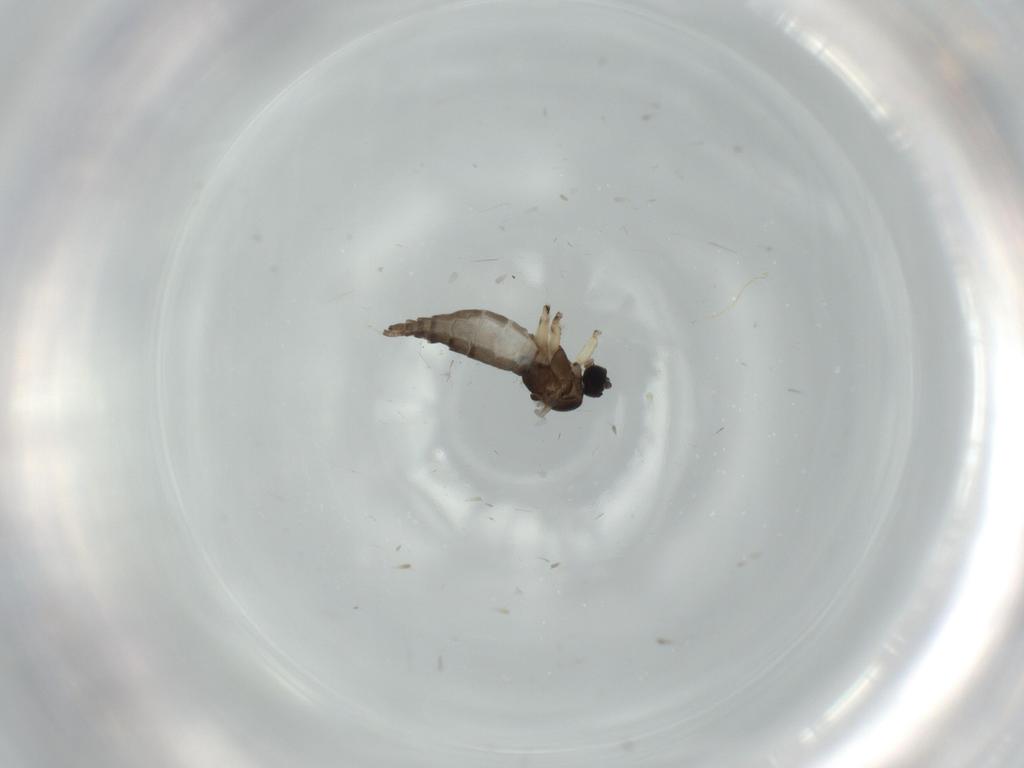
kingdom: Animalia
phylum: Arthropoda
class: Insecta
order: Diptera
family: Sciaridae
